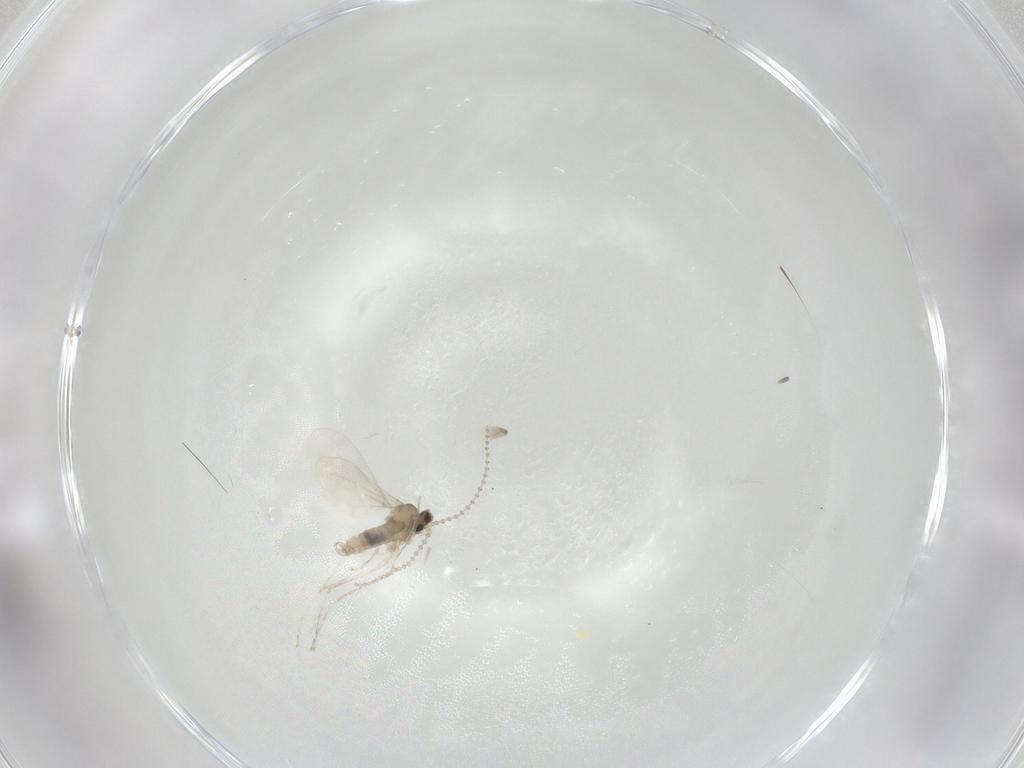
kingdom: Animalia
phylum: Arthropoda
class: Insecta
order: Diptera
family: Cecidomyiidae
